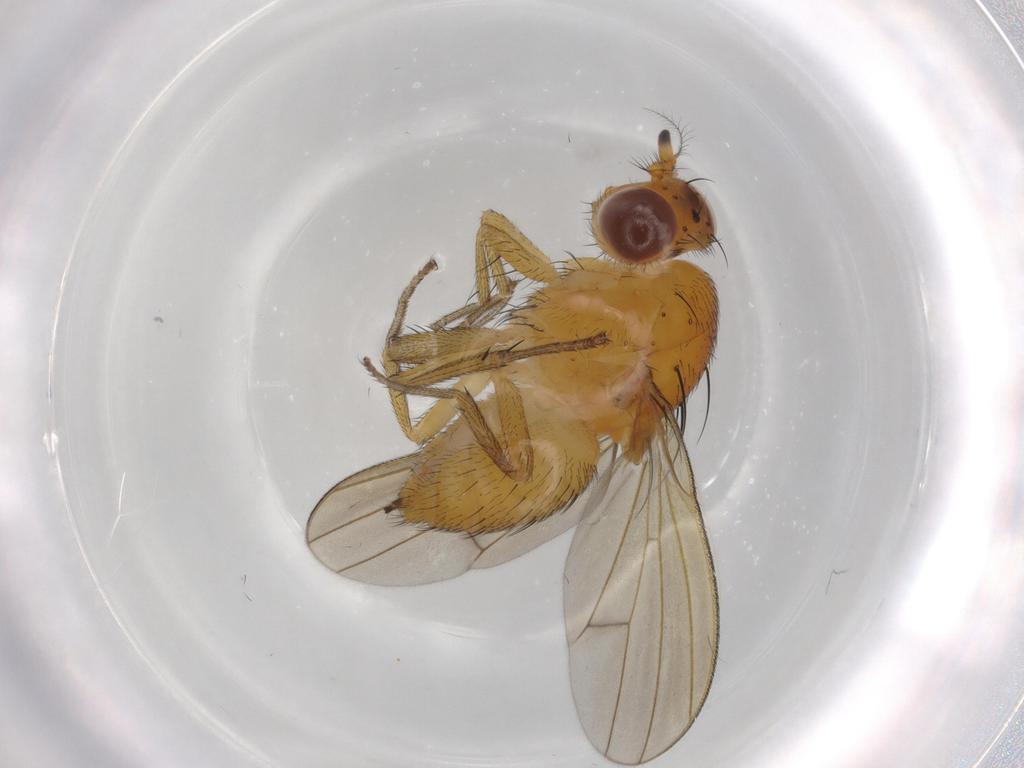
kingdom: Animalia
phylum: Arthropoda
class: Insecta
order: Diptera
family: Lauxaniidae
